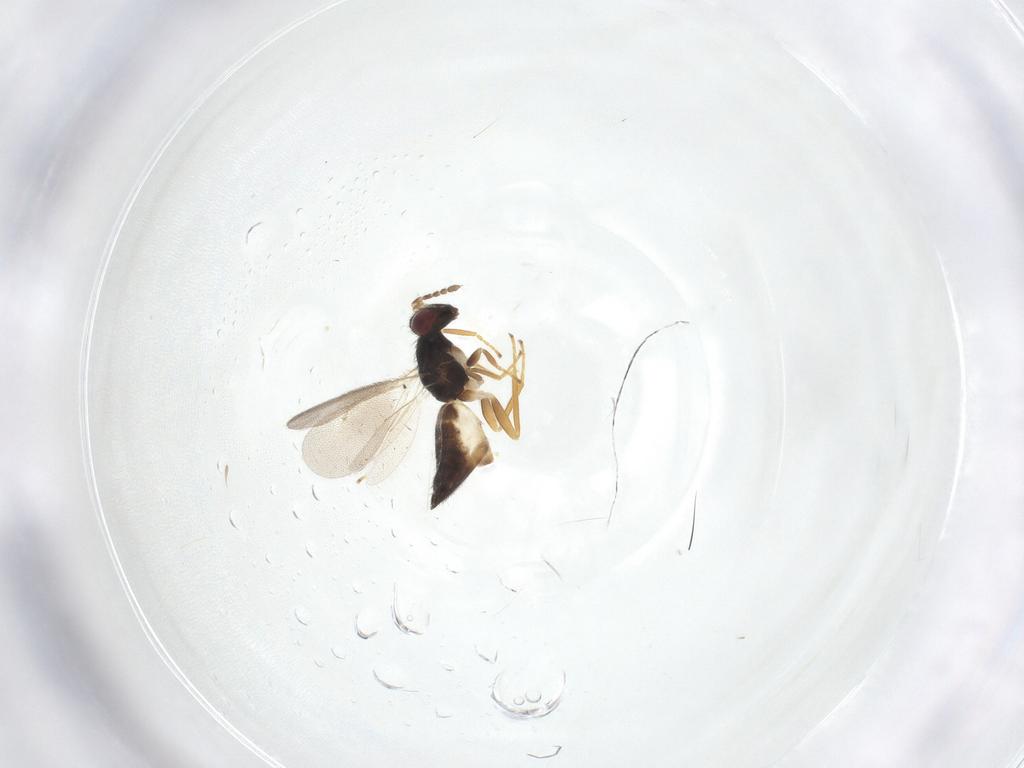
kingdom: Animalia
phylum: Arthropoda
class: Insecta
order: Hymenoptera
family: Eulophidae
